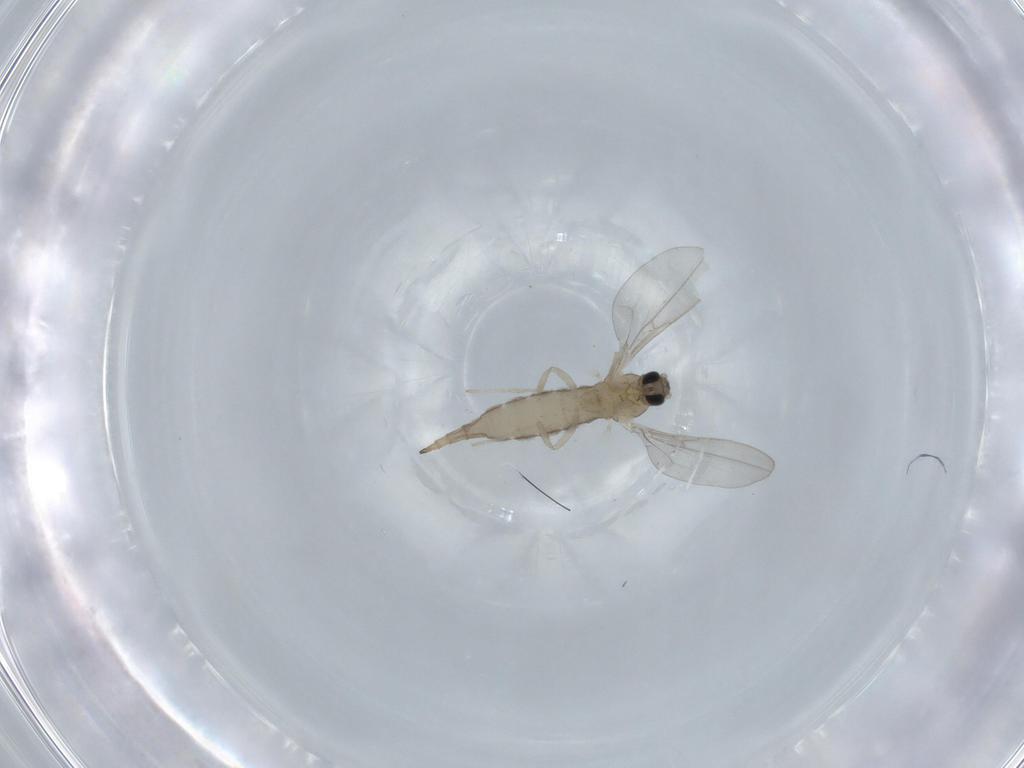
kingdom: Animalia
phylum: Arthropoda
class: Insecta
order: Diptera
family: Cecidomyiidae
